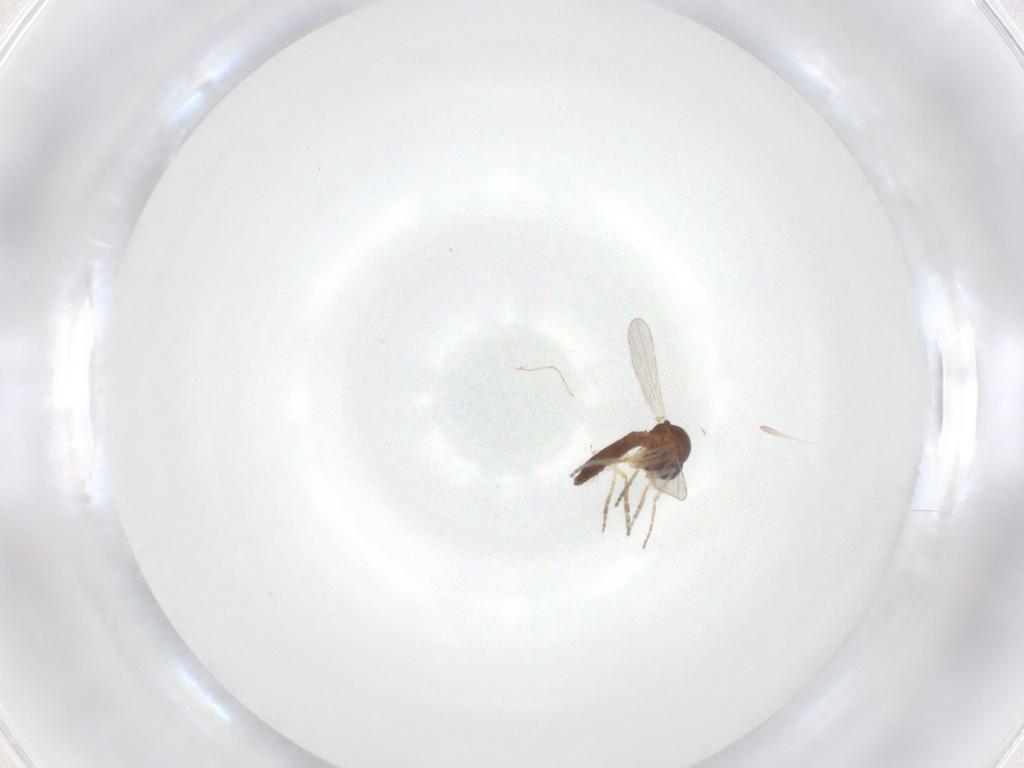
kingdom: Animalia
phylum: Arthropoda
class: Insecta
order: Diptera
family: Ceratopogonidae
